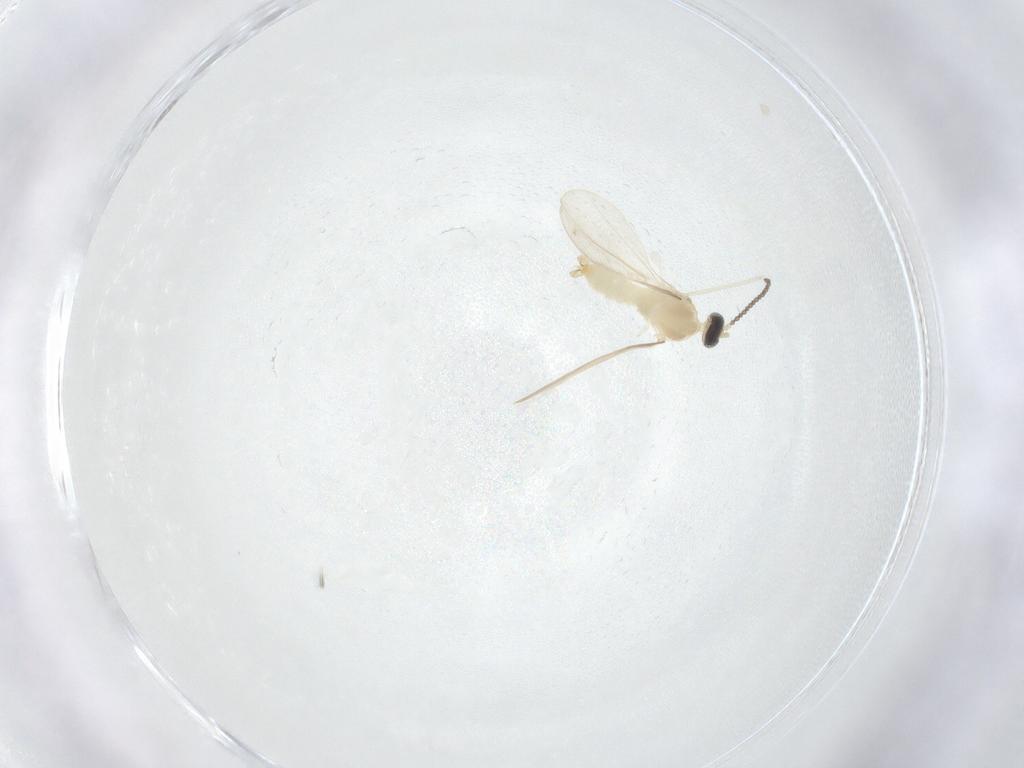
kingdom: Animalia
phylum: Arthropoda
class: Insecta
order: Diptera
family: Cecidomyiidae
